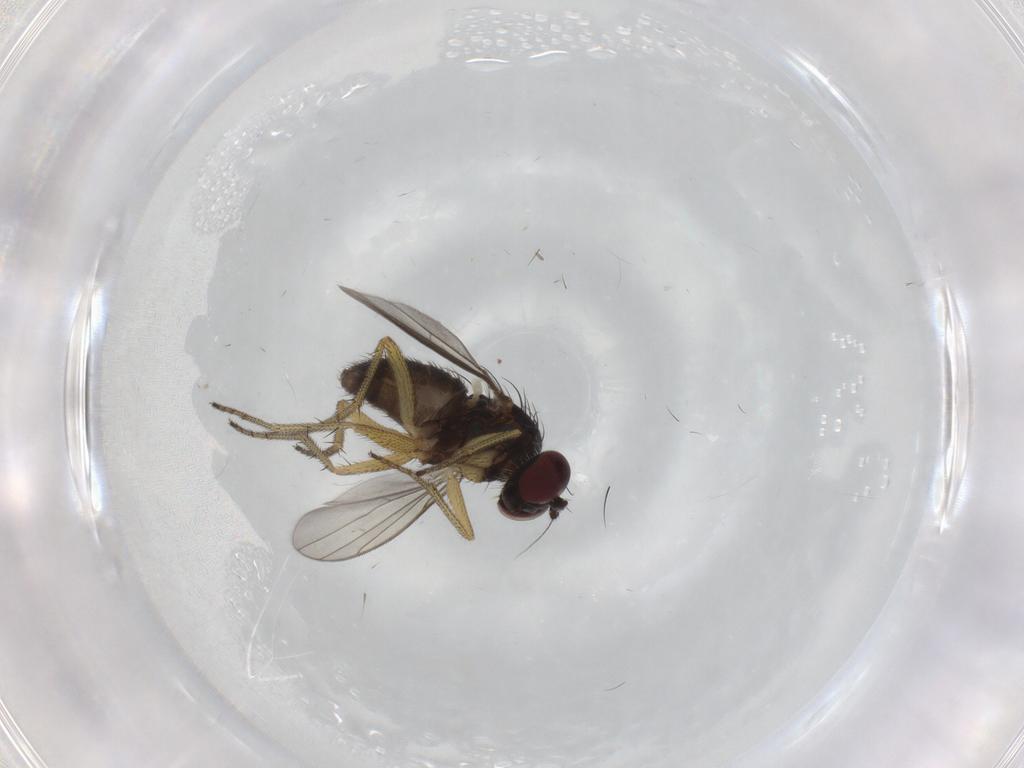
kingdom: Animalia
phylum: Arthropoda
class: Insecta
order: Diptera
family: Dolichopodidae
